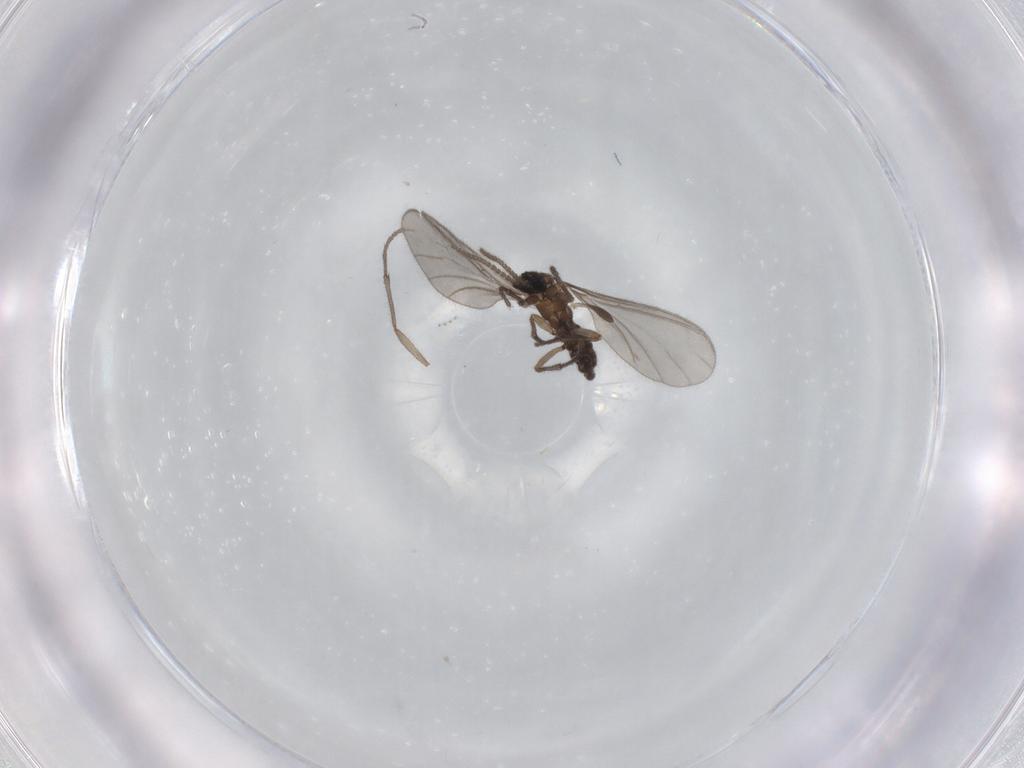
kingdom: Animalia
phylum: Arthropoda
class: Insecta
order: Diptera
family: Sciaridae
